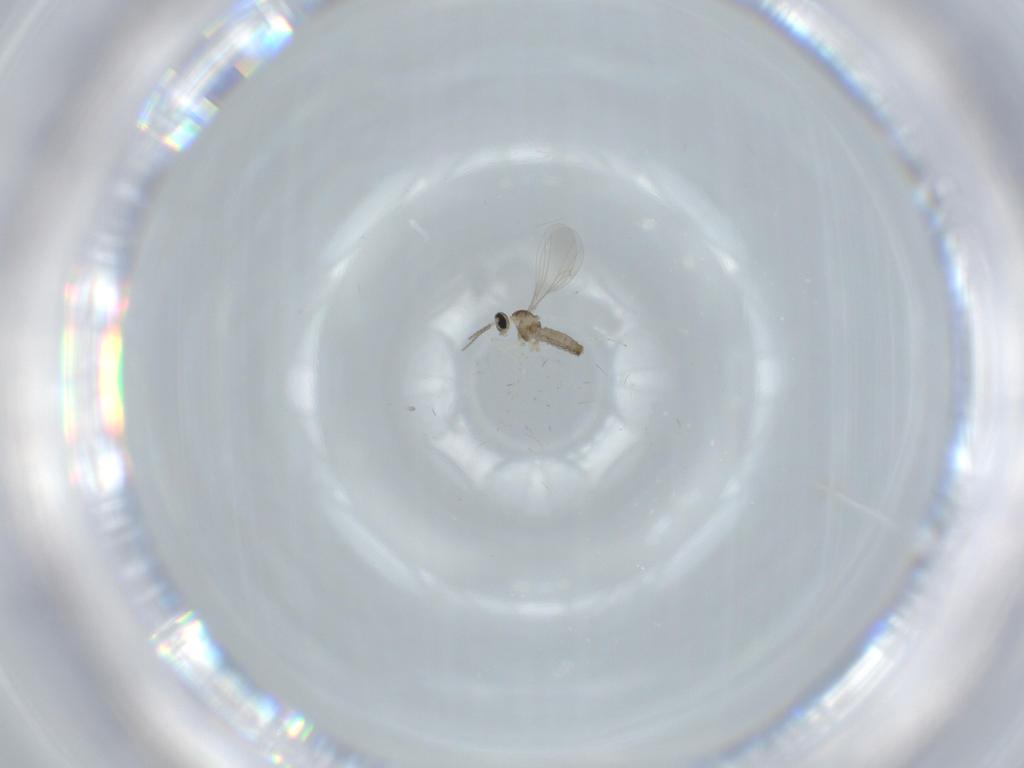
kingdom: Animalia
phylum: Arthropoda
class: Insecta
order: Diptera
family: Cecidomyiidae
